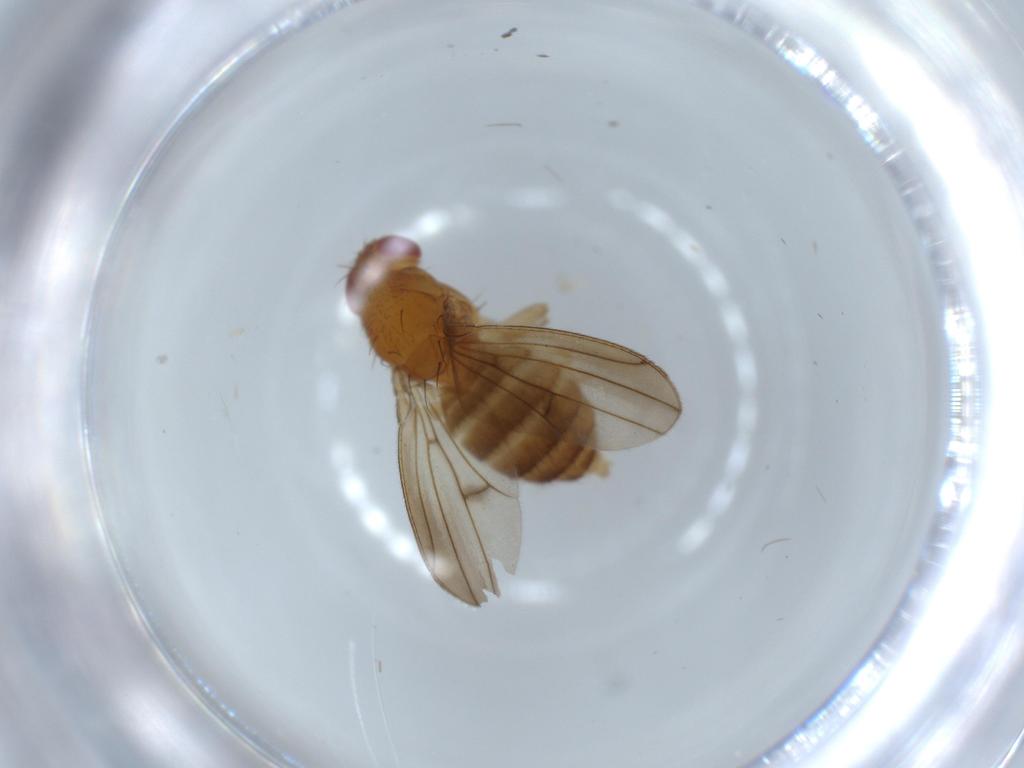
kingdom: Animalia
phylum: Arthropoda
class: Insecta
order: Diptera
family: Drosophilidae
